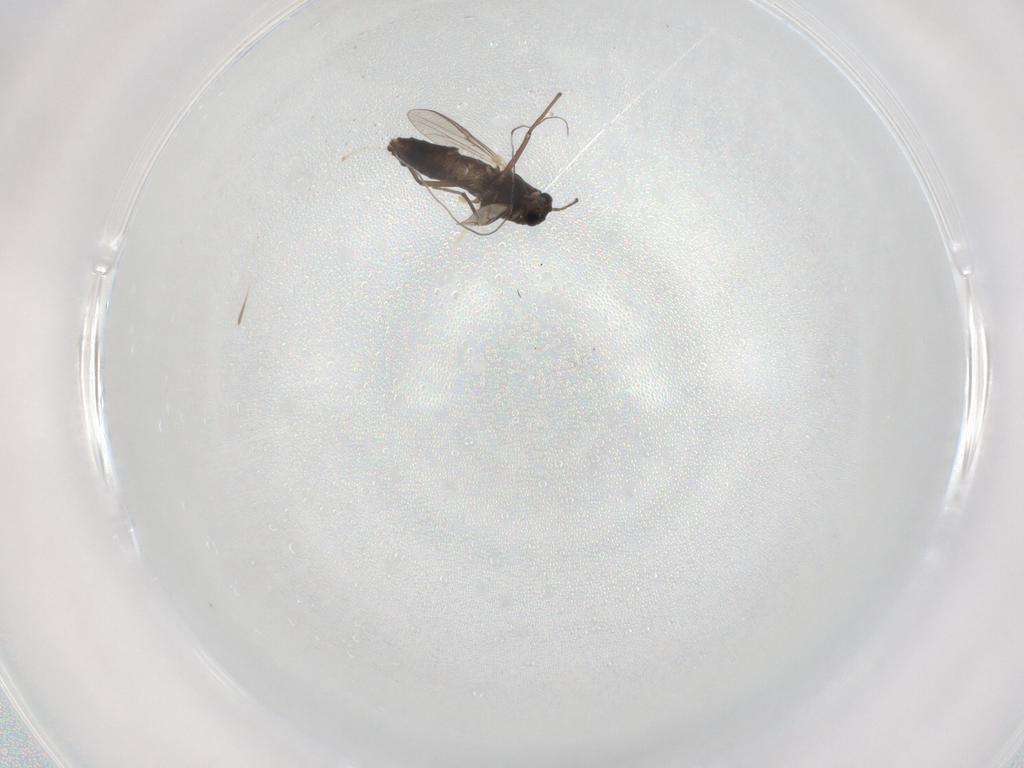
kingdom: Animalia
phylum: Arthropoda
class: Insecta
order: Diptera
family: Chironomidae
